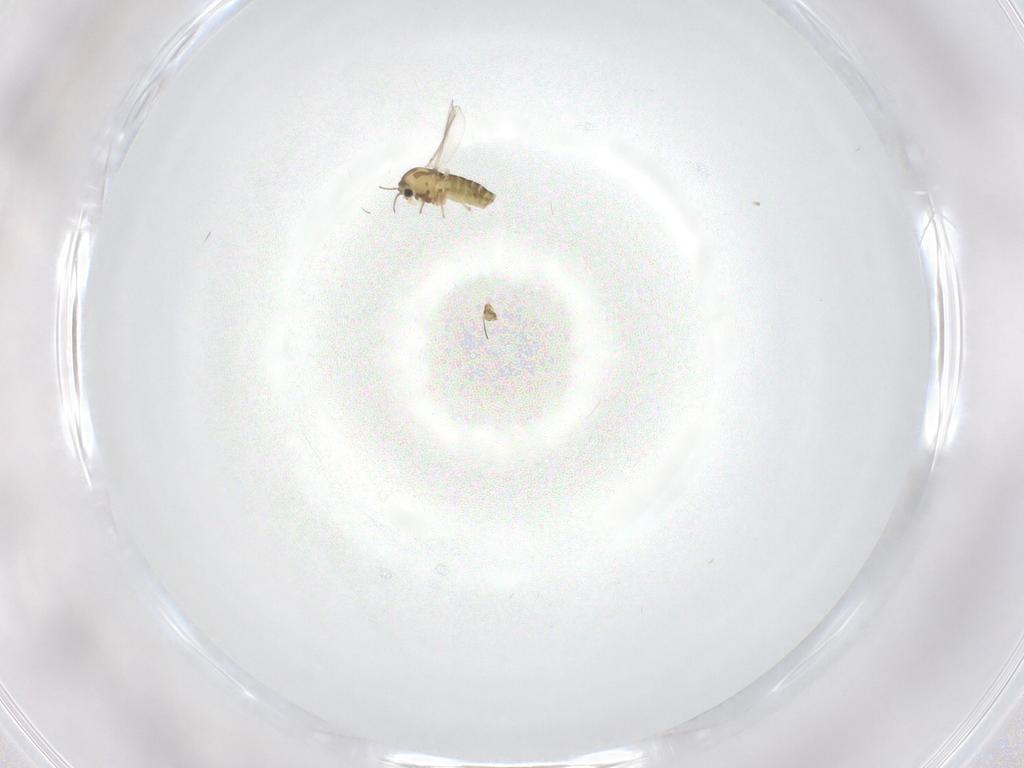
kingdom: Animalia
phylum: Arthropoda
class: Insecta
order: Diptera
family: Chironomidae
